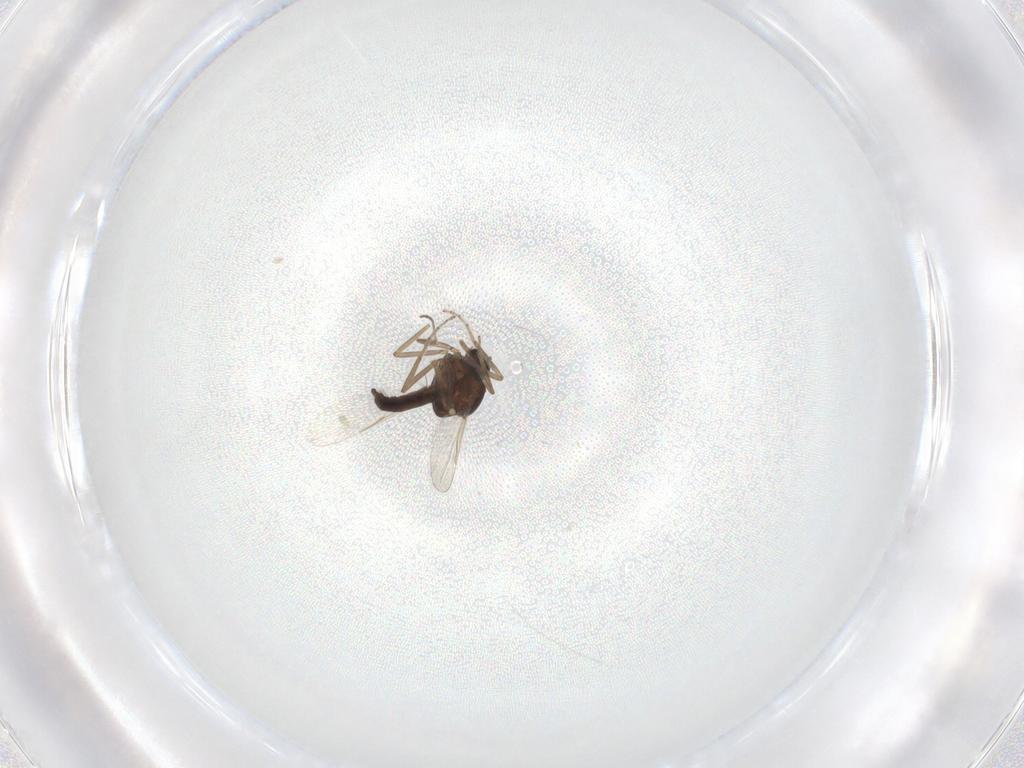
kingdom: Animalia
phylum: Arthropoda
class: Insecta
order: Diptera
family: Ceratopogonidae
